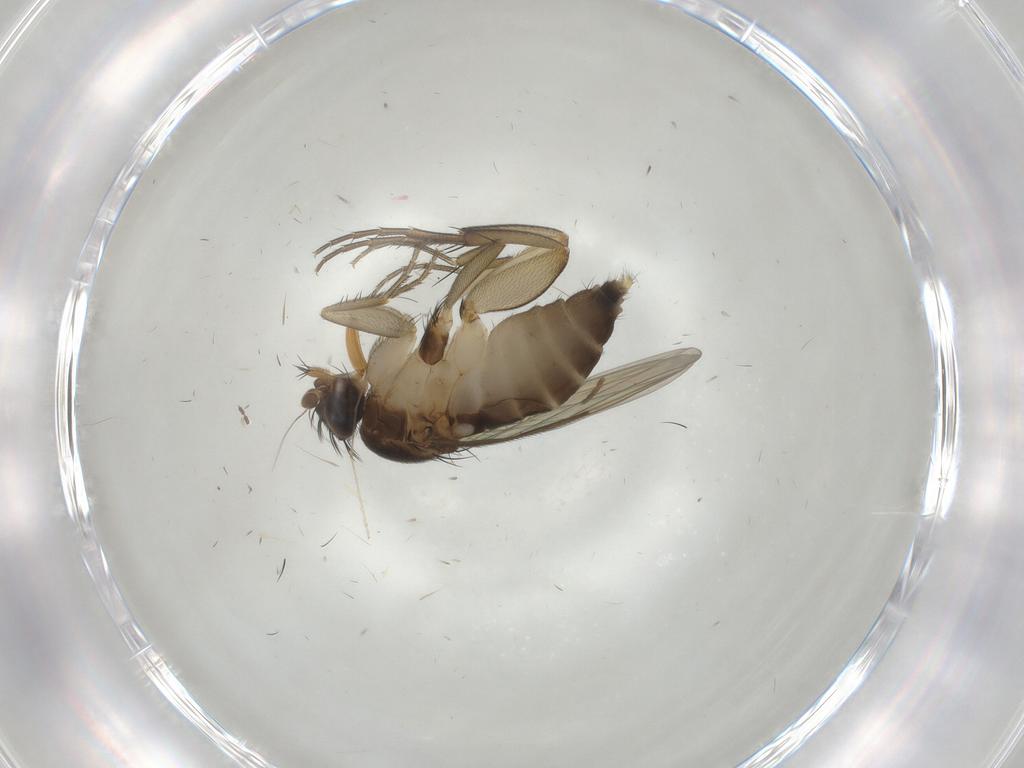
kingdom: Animalia
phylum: Arthropoda
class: Insecta
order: Diptera
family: Phoridae
